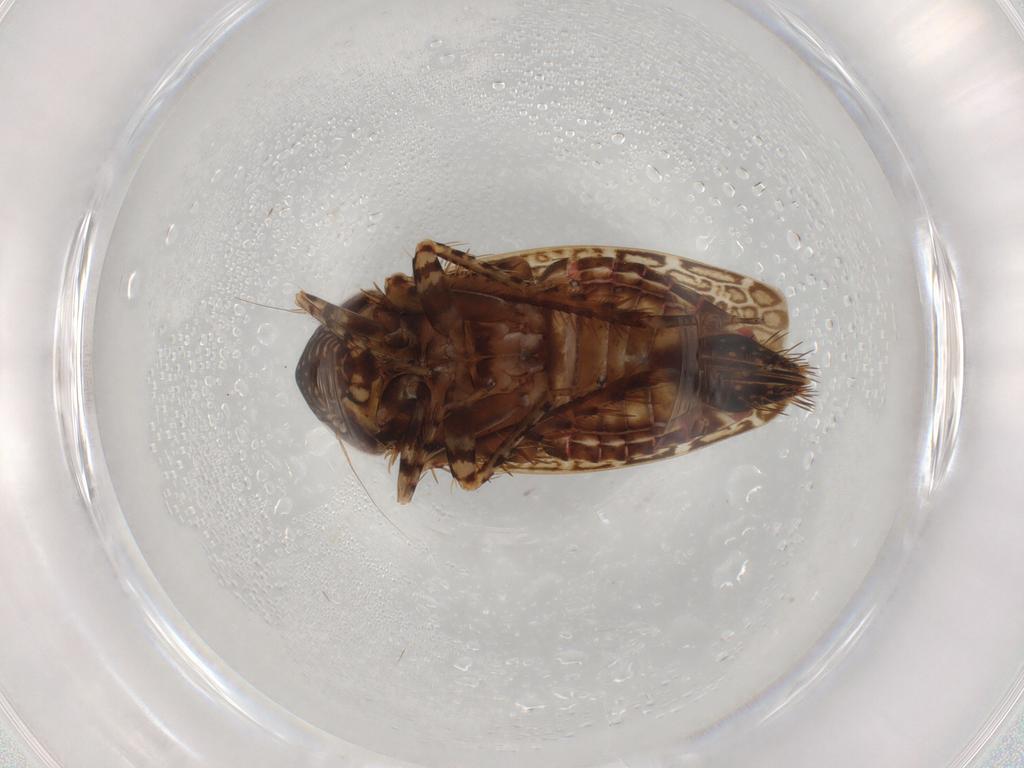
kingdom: Animalia
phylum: Arthropoda
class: Insecta
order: Hemiptera
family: Cicadellidae
